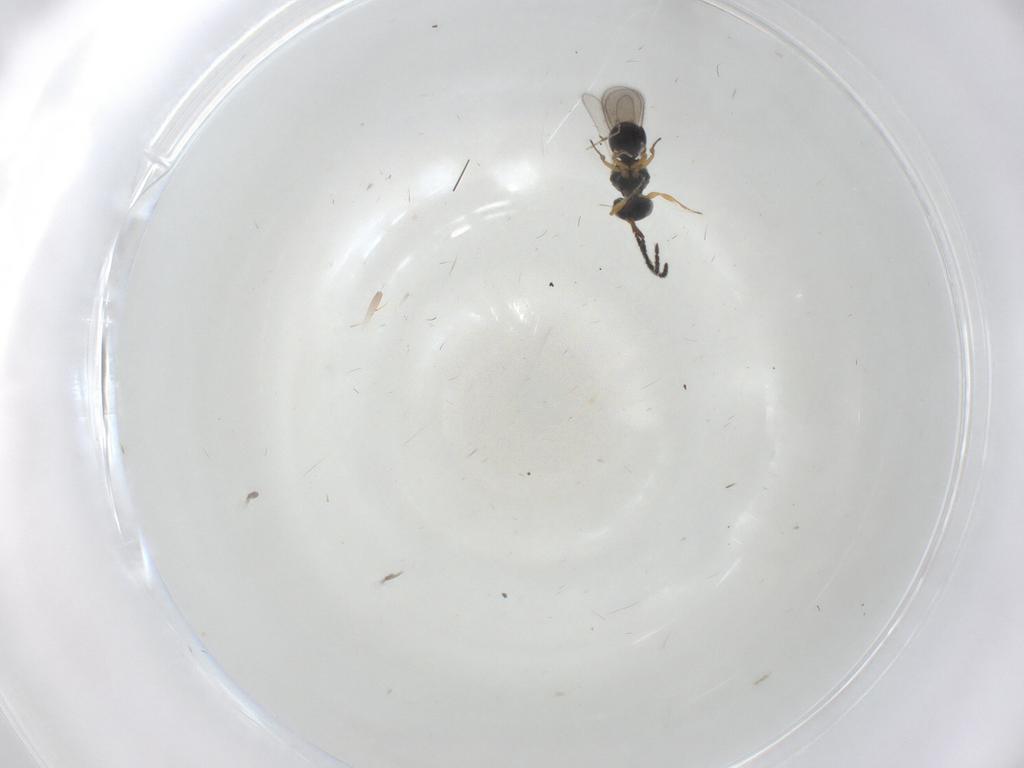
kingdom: Animalia
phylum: Arthropoda
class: Insecta
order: Hymenoptera
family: Scelionidae
